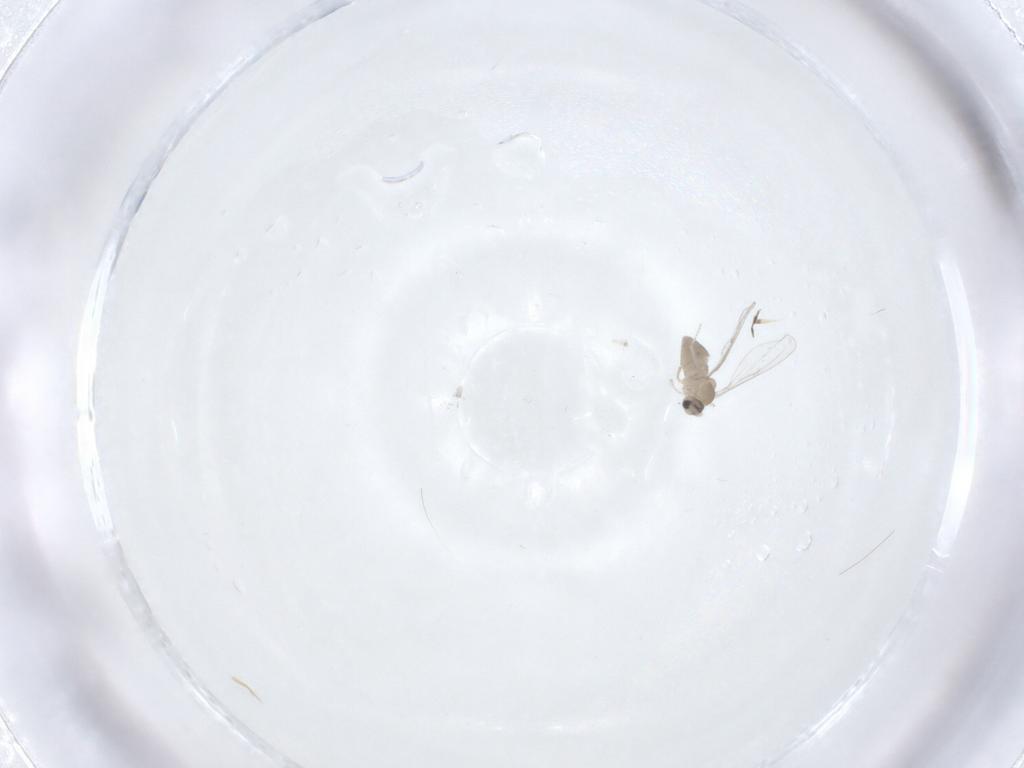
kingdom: Animalia
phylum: Arthropoda
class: Insecta
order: Diptera
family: Cecidomyiidae
